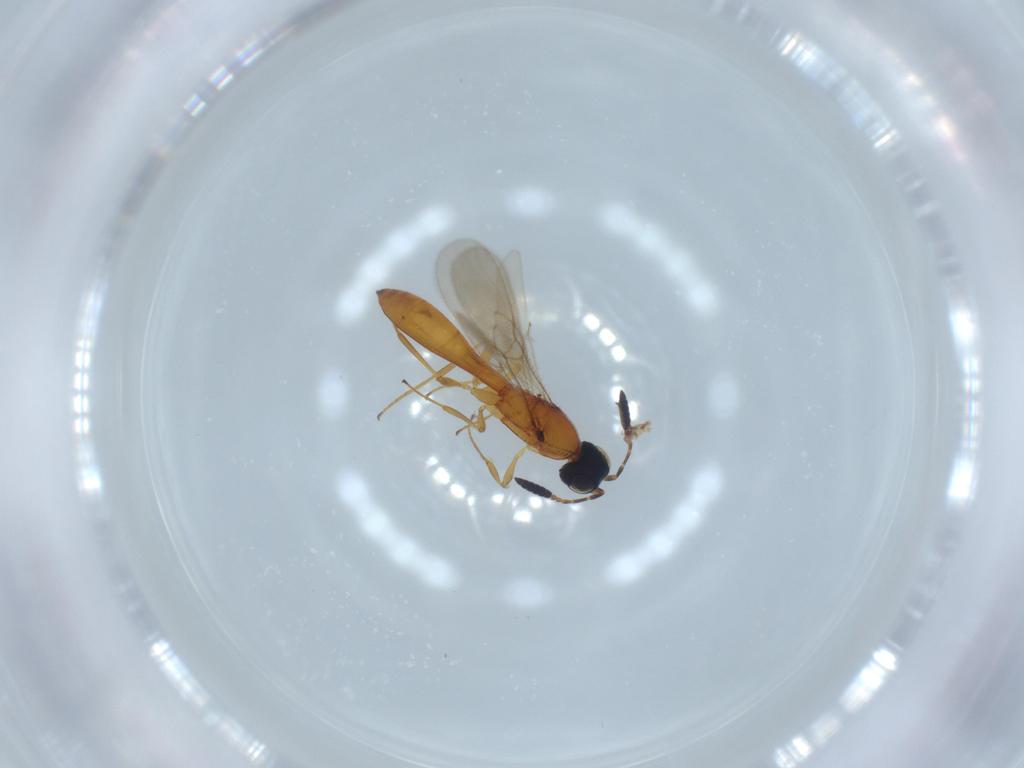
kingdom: Animalia
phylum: Arthropoda
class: Insecta
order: Hymenoptera
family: Scelionidae
